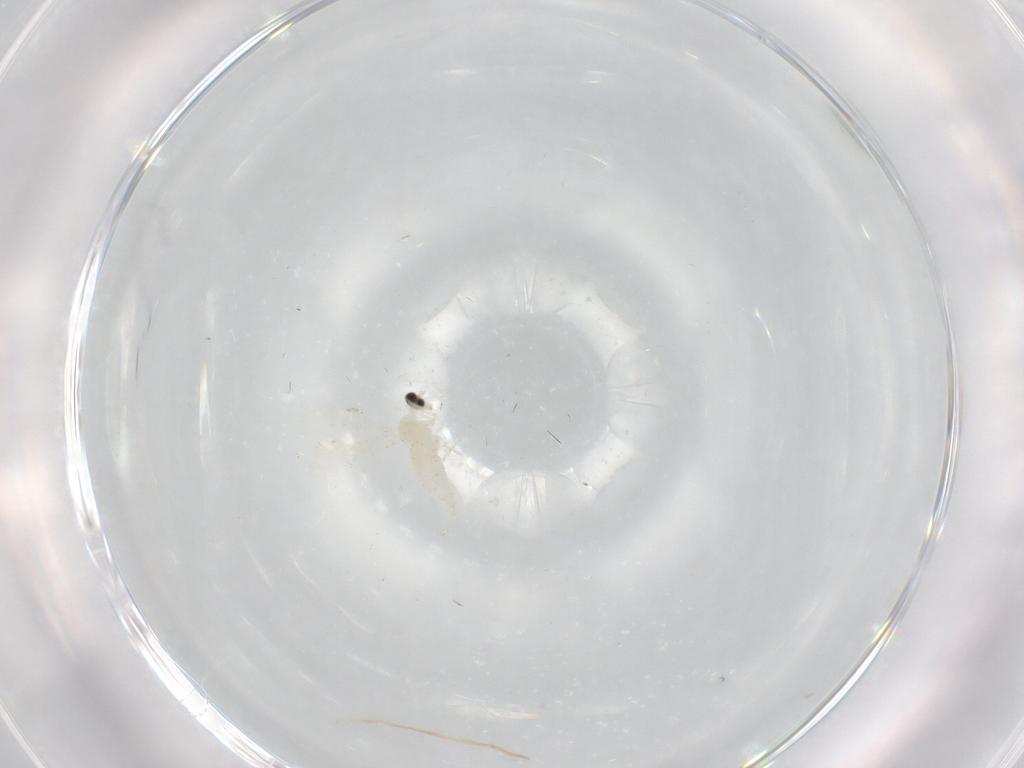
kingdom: Animalia
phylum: Arthropoda
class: Insecta
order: Diptera
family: Cecidomyiidae
